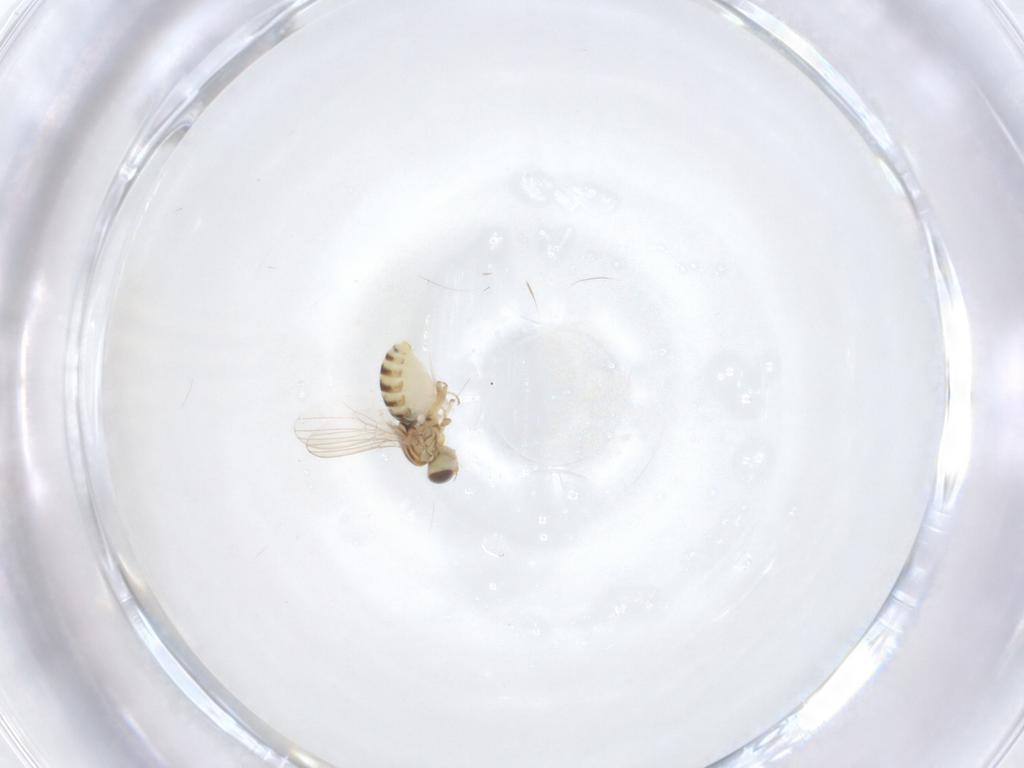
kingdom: Animalia
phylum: Arthropoda
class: Insecta
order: Diptera
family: Chyromyidae
